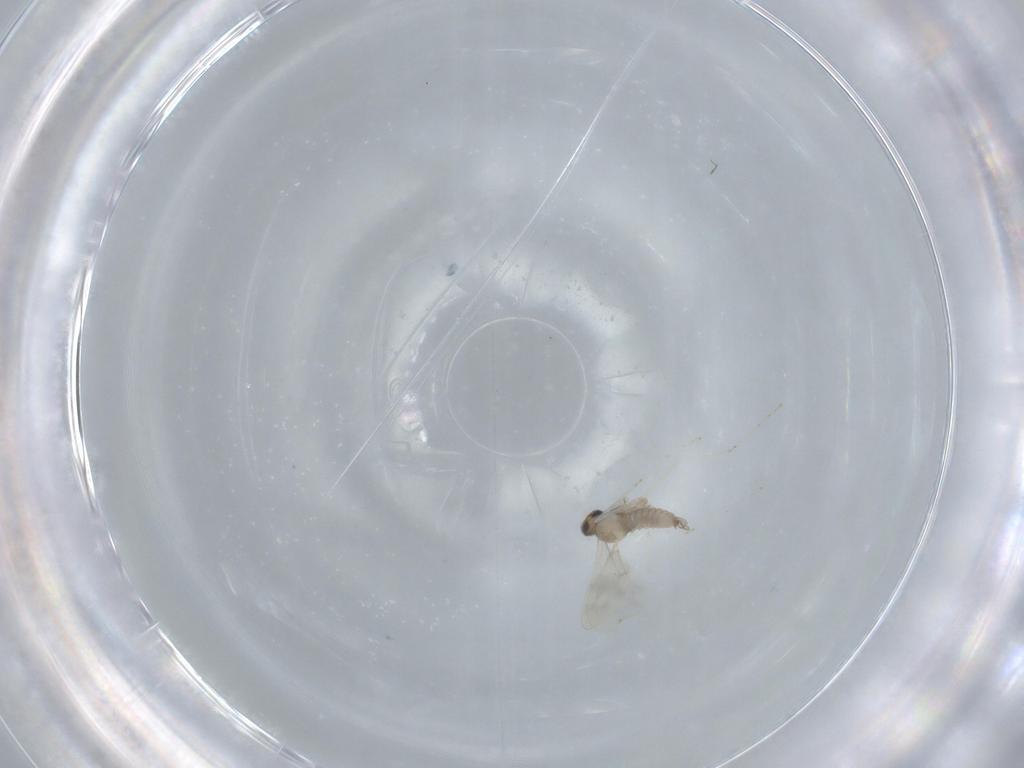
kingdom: Animalia
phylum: Arthropoda
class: Insecta
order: Diptera
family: Cecidomyiidae
